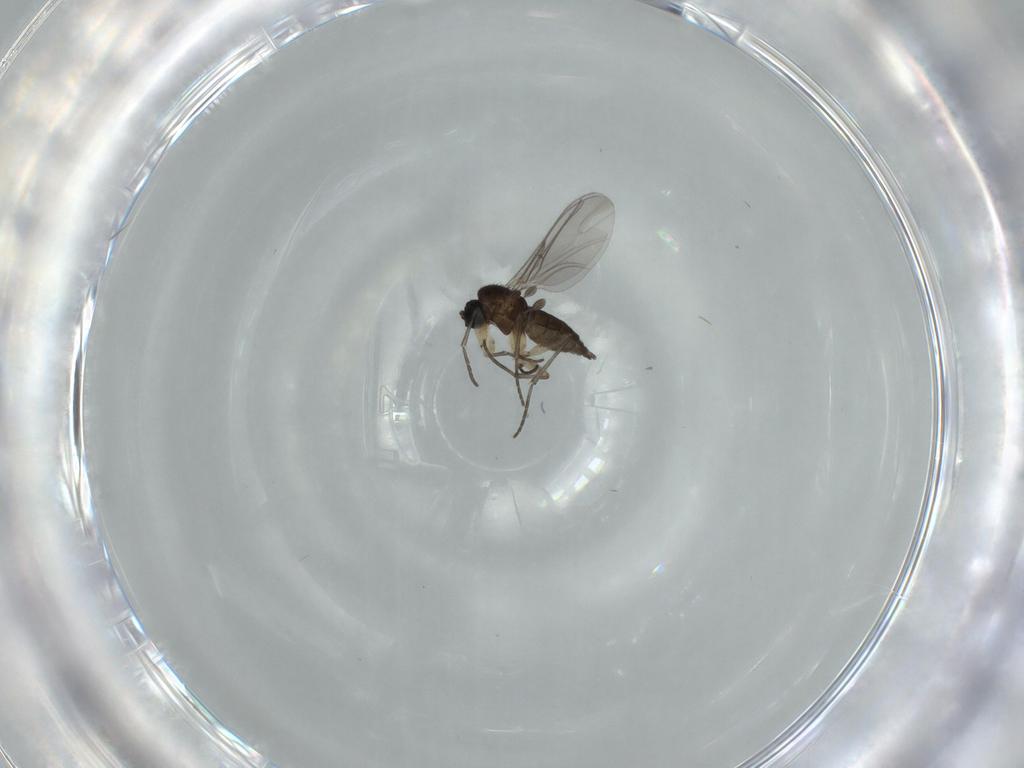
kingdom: Animalia
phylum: Arthropoda
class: Insecta
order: Diptera
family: Sciaridae
